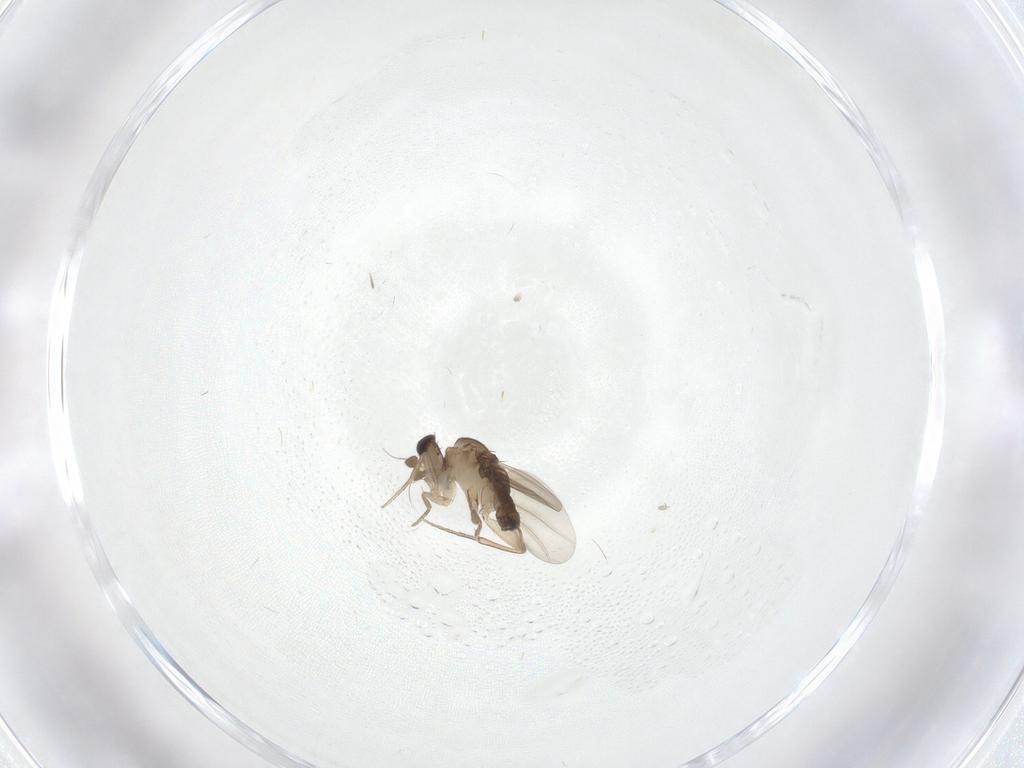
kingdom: Animalia
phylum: Arthropoda
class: Insecta
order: Diptera
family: Cecidomyiidae
